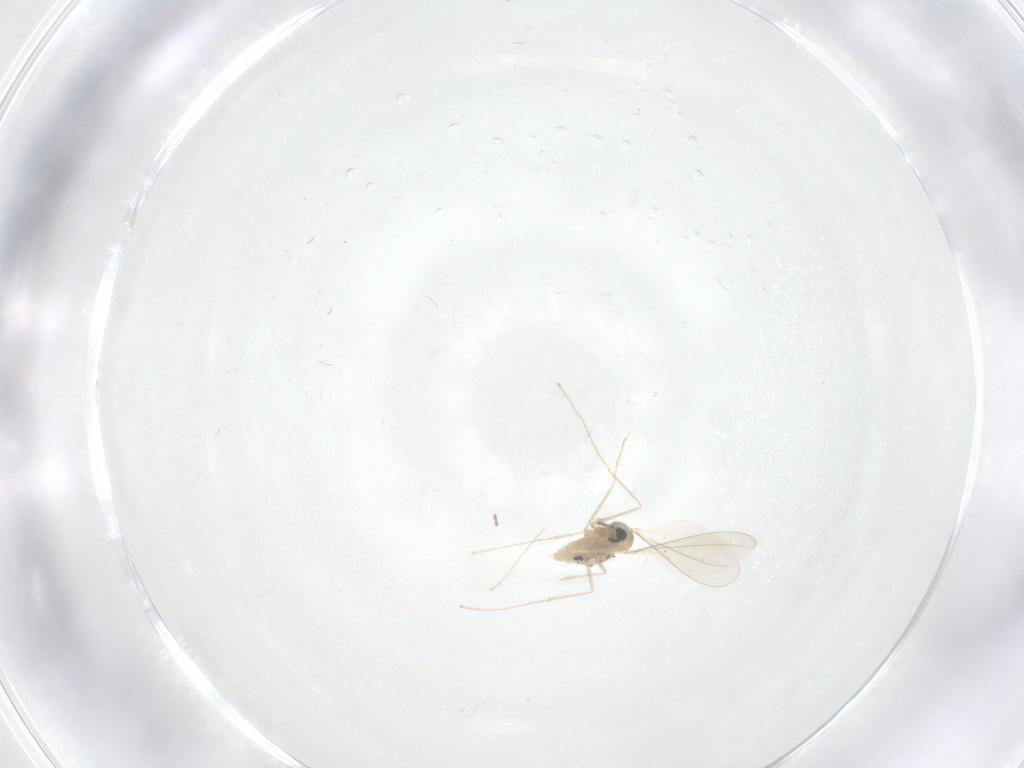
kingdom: Animalia
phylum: Arthropoda
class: Insecta
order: Diptera
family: Cecidomyiidae
